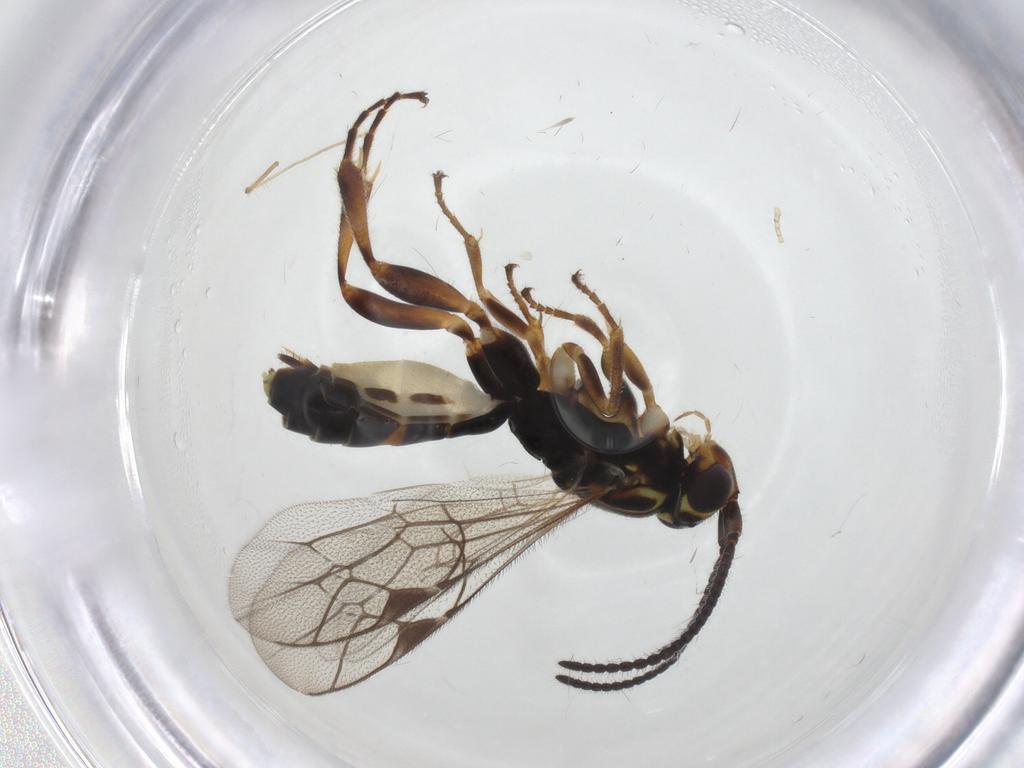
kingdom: Animalia
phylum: Arthropoda
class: Insecta
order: Hymenoptera
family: Ichneumonidae
